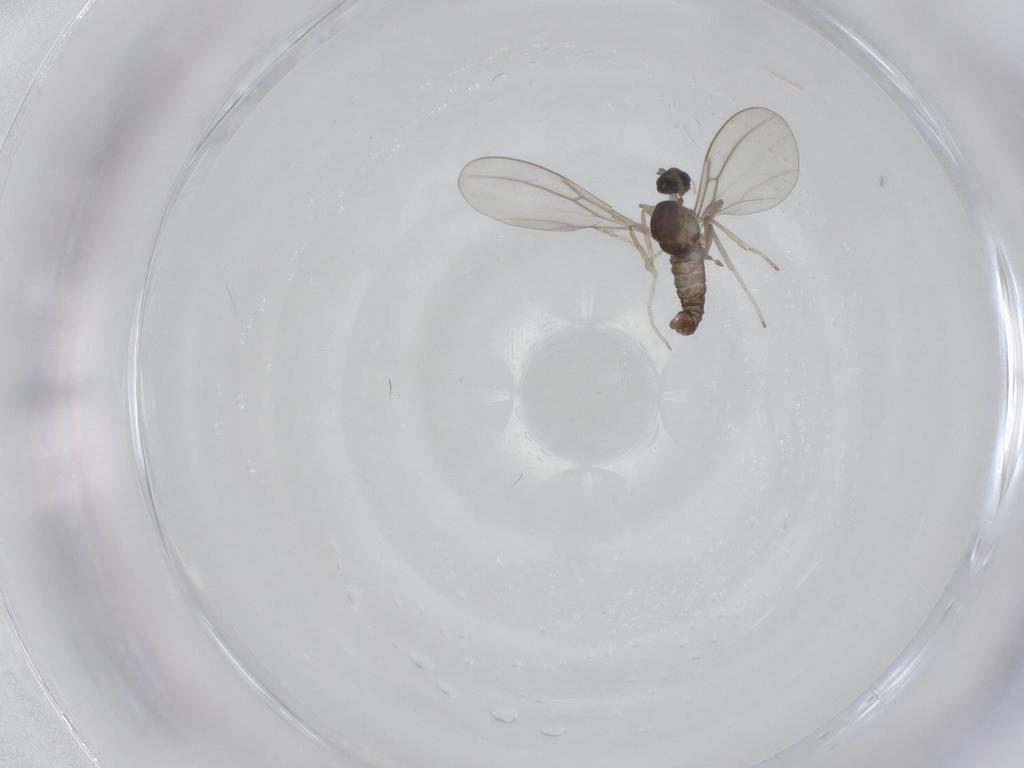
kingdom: Animalia
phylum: Arthropoda
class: Insecta
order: Diptera
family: Cecidomyiidae
